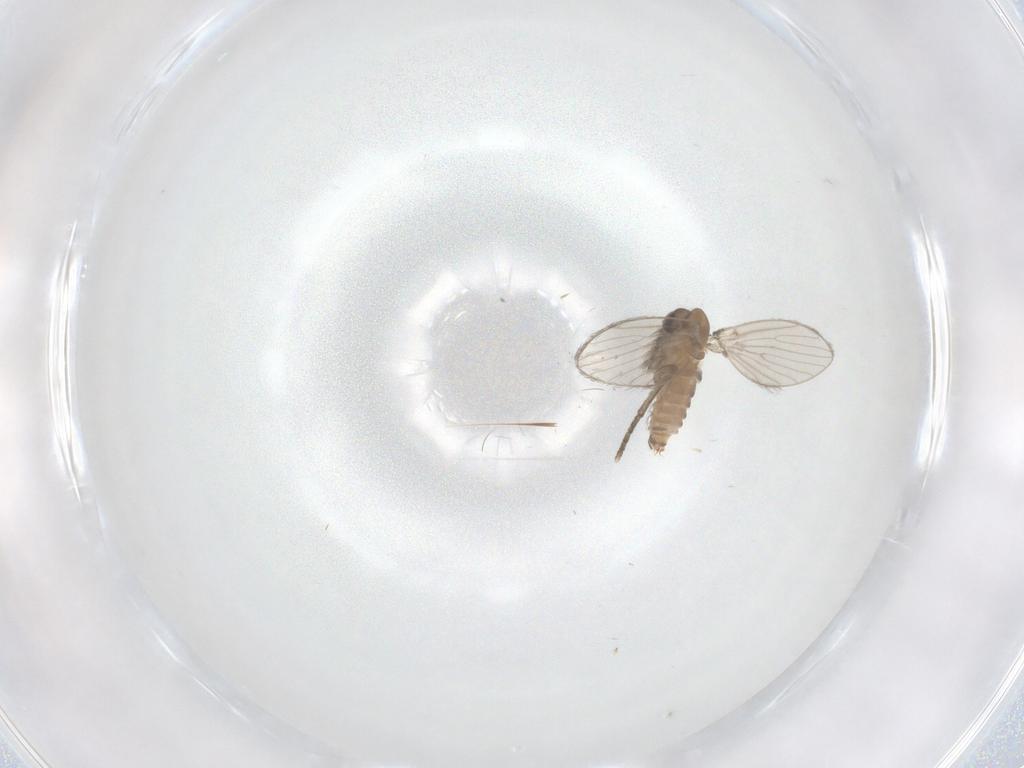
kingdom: Animalia
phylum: Arthropoda
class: Insecta
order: Diptera
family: Psychodidae
